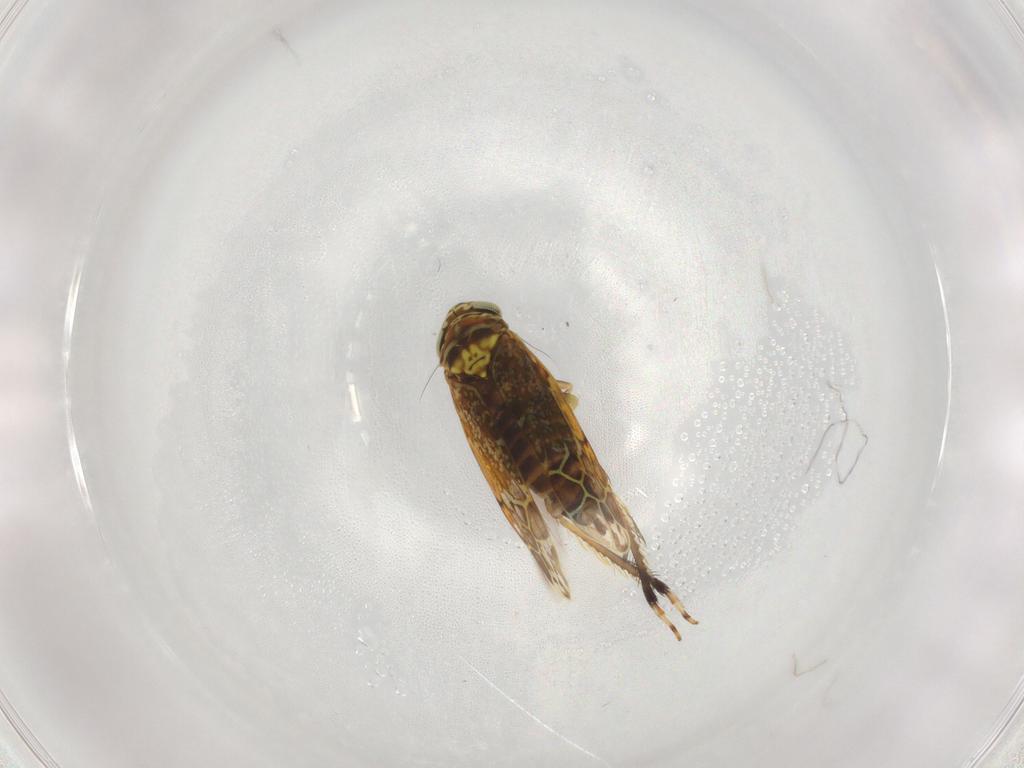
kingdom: Animalia
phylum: Arthropoda
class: Insecta
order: Hemiptera
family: Cicadellidae
